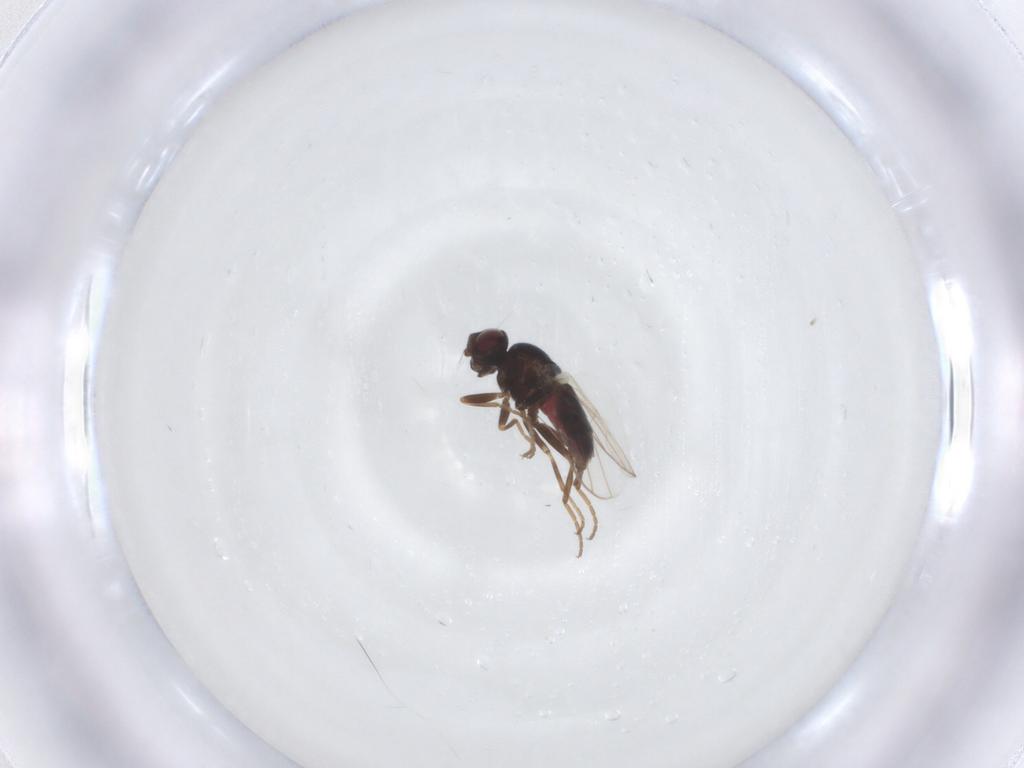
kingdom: Animalia
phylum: Arthropoda
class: Insecta
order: Diptera
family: Chloropidae
